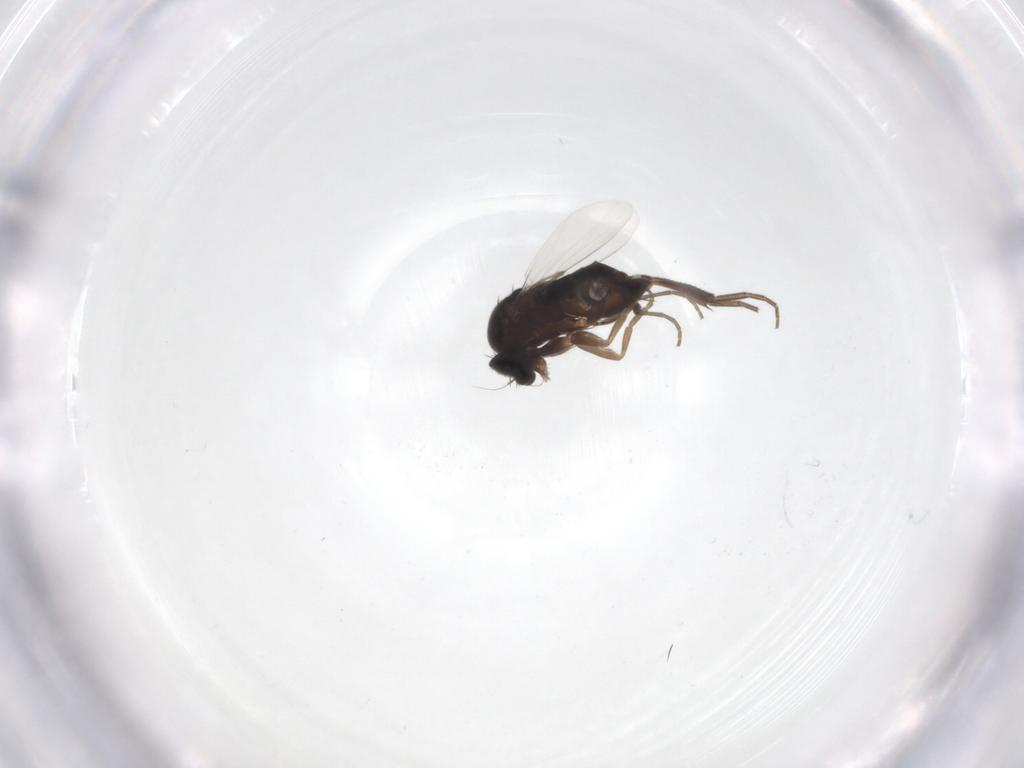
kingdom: Animalia
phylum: Arthropoda
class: Insecta
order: Diptera
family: Phoridae
